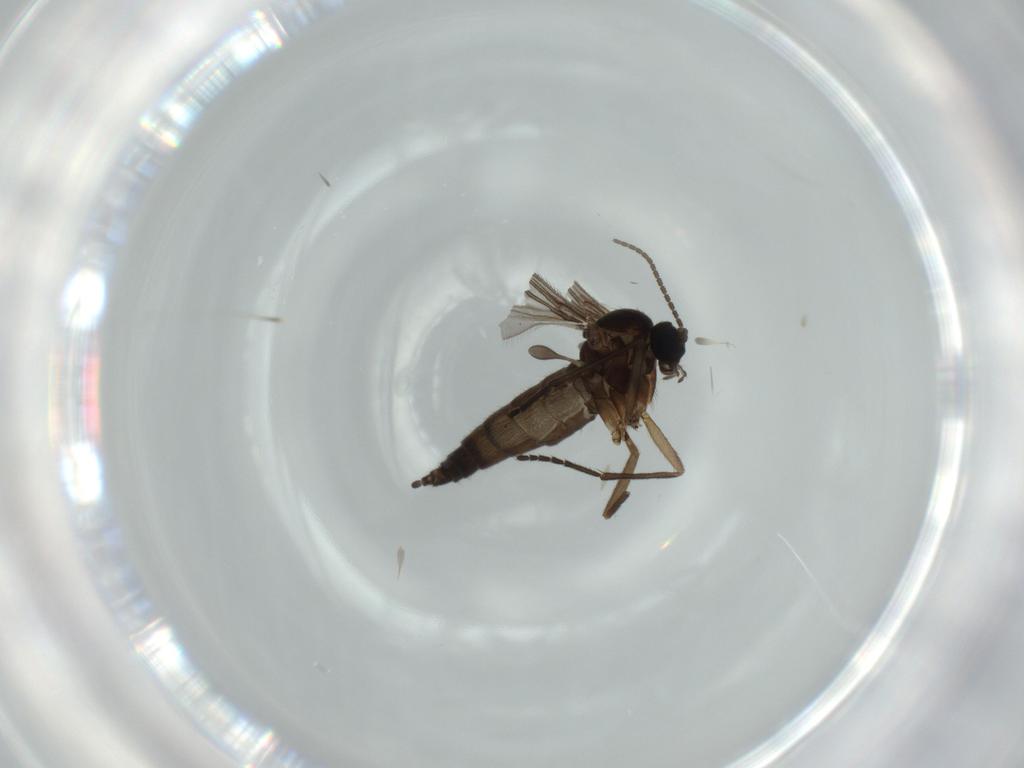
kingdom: Animalia
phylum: Arthropoda
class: Insecta
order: Diptera
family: Sciaridae
